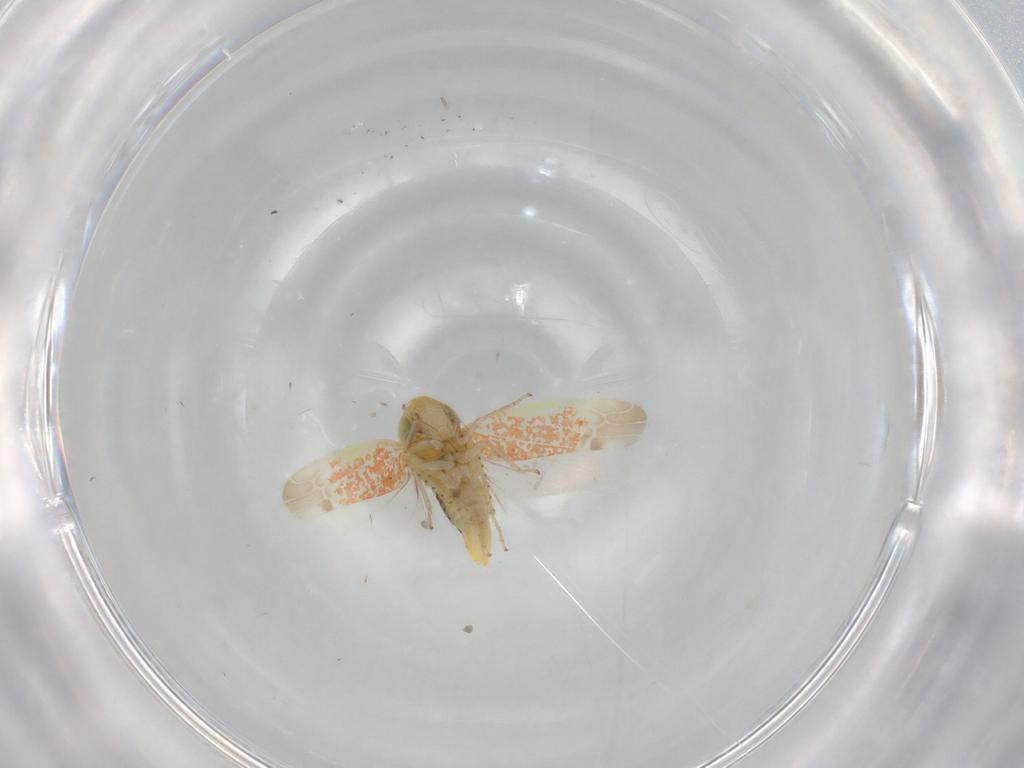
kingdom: Animalia
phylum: Arthropoda
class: Insecta
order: Hemiptera
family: Cicadellidae
